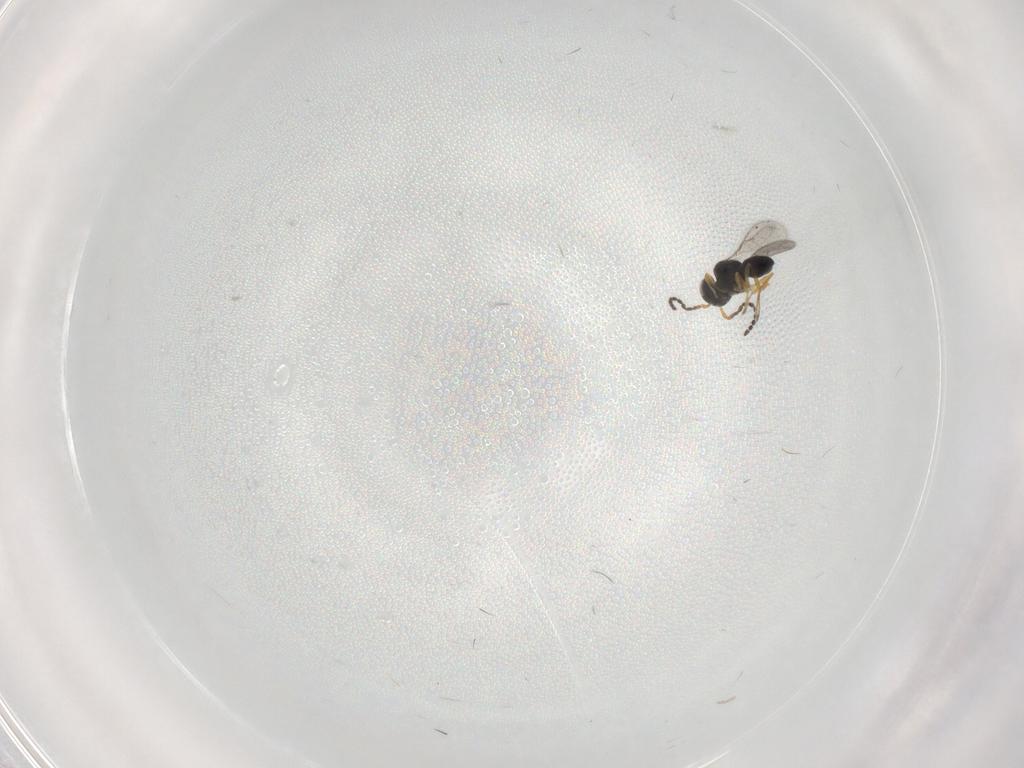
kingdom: Animalia
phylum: Arthropoda
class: Insecta
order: Hymenoptera
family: Scelionidae
